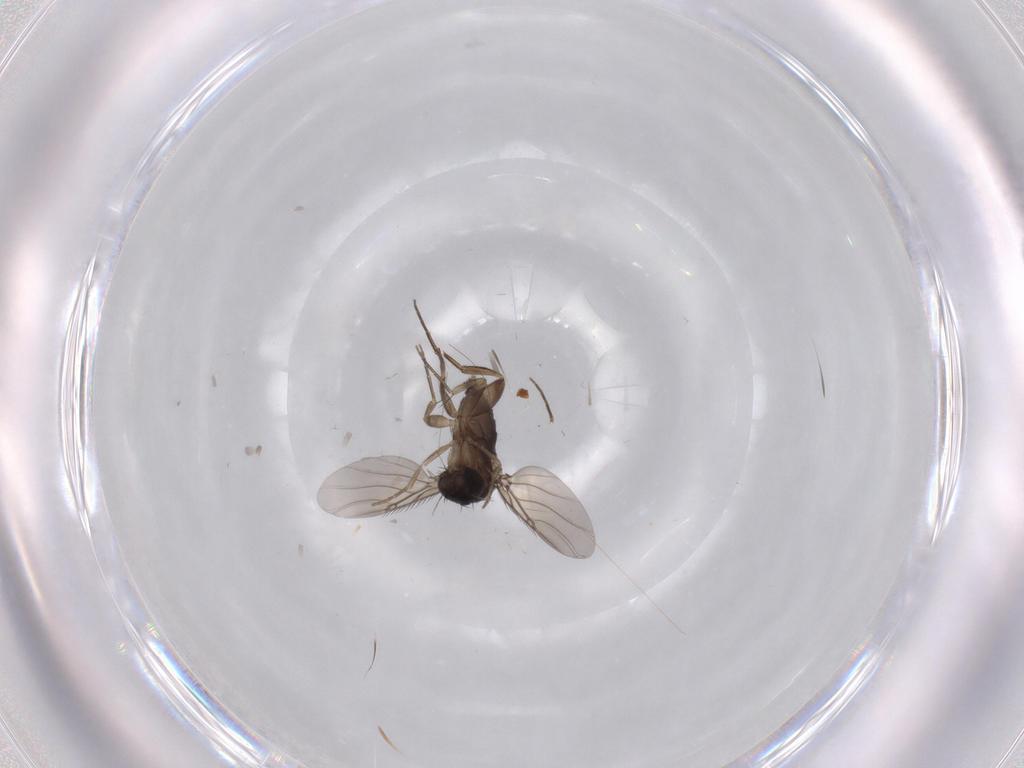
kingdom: Animalia
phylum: Arthropoda
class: Insecta
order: Diptera
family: Phoridae
